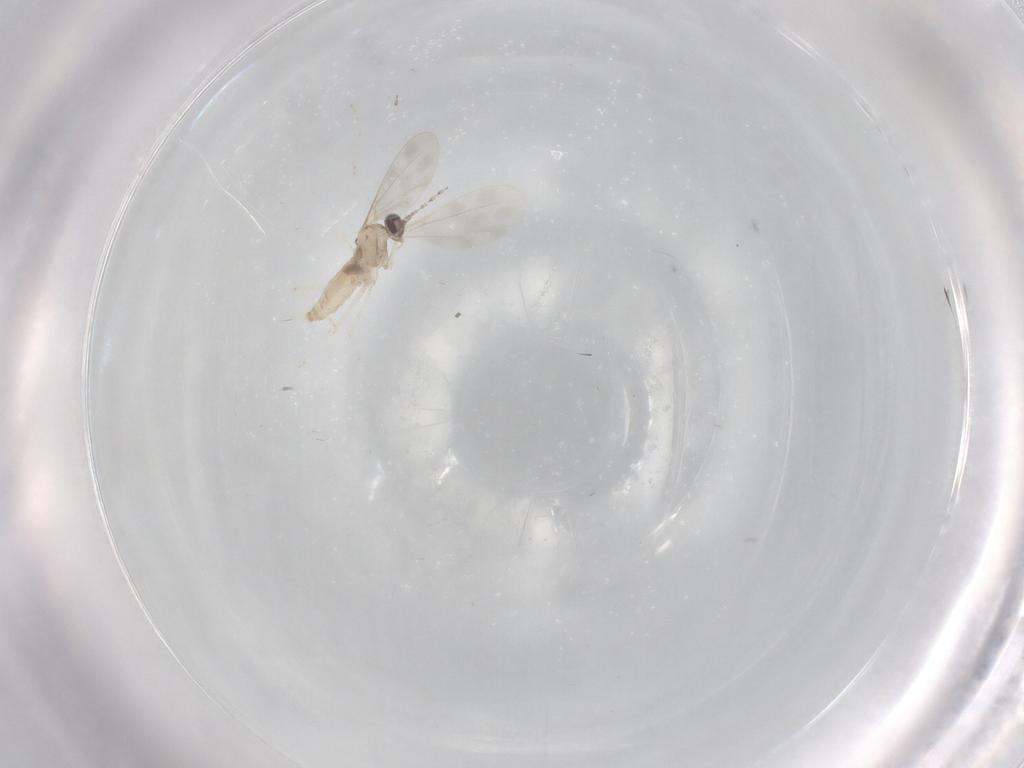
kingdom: Animalia
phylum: Arthropoda
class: Insecta
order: Diptera
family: Cecidomyiidae
